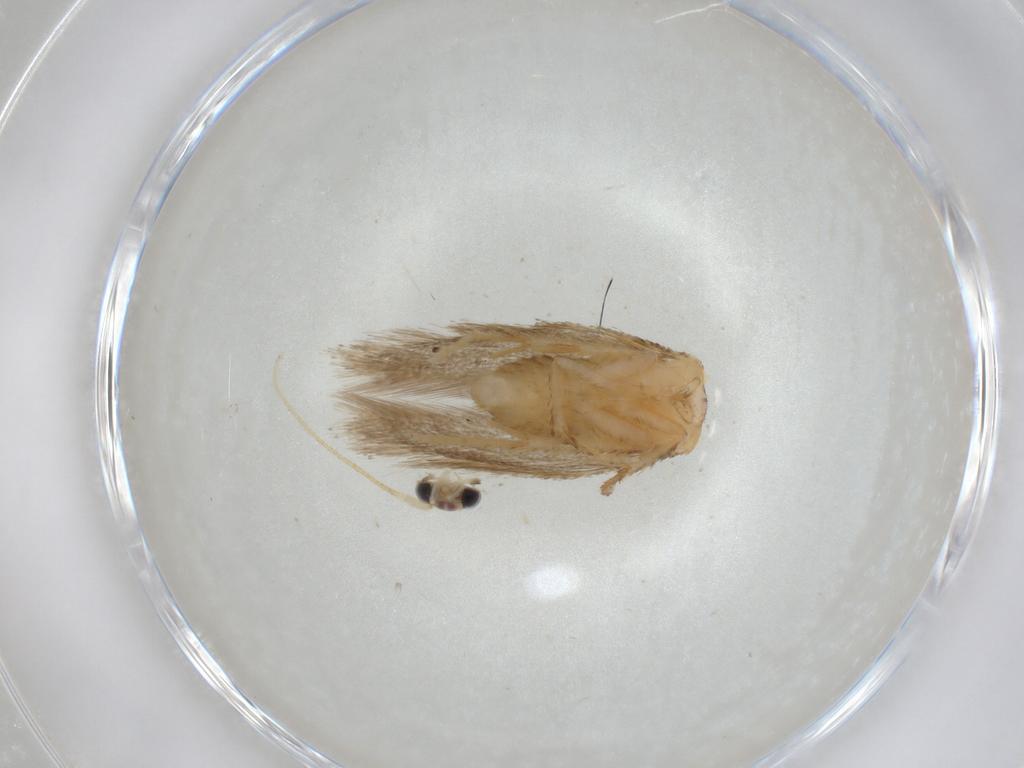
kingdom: Animalia
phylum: Arthropoda
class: Insecta
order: Lepidoptera
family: Nepticulidae
